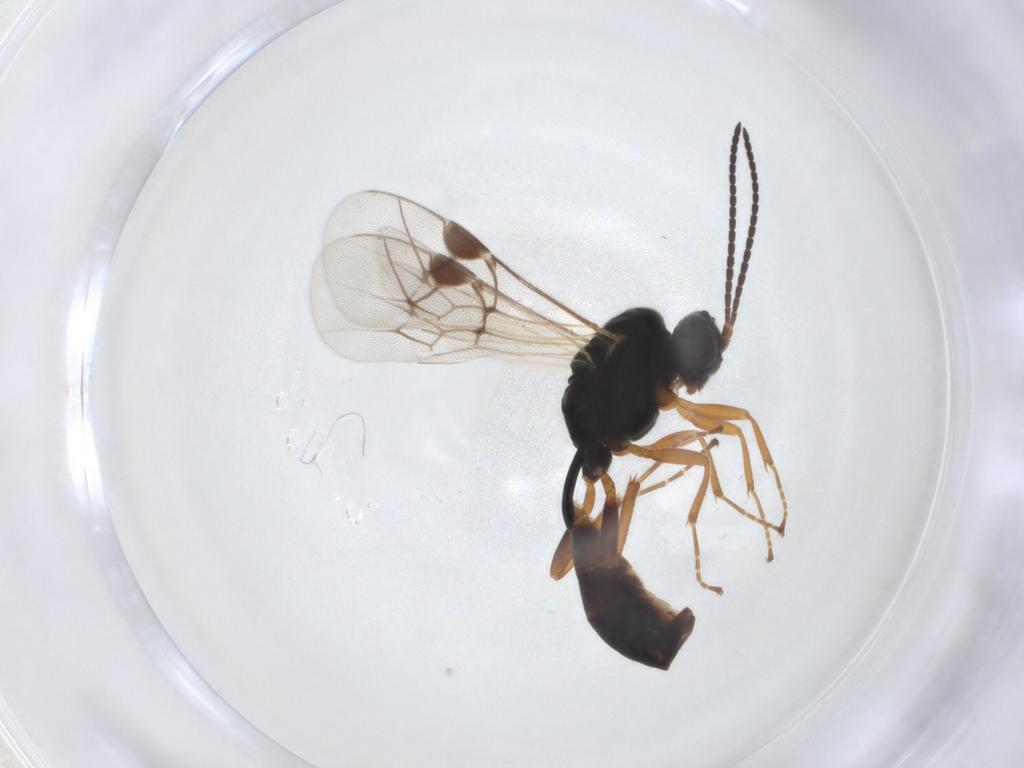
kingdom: Animalia
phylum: Arthropoda
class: Insecta
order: Hymenoptera
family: Ichneumonidae
